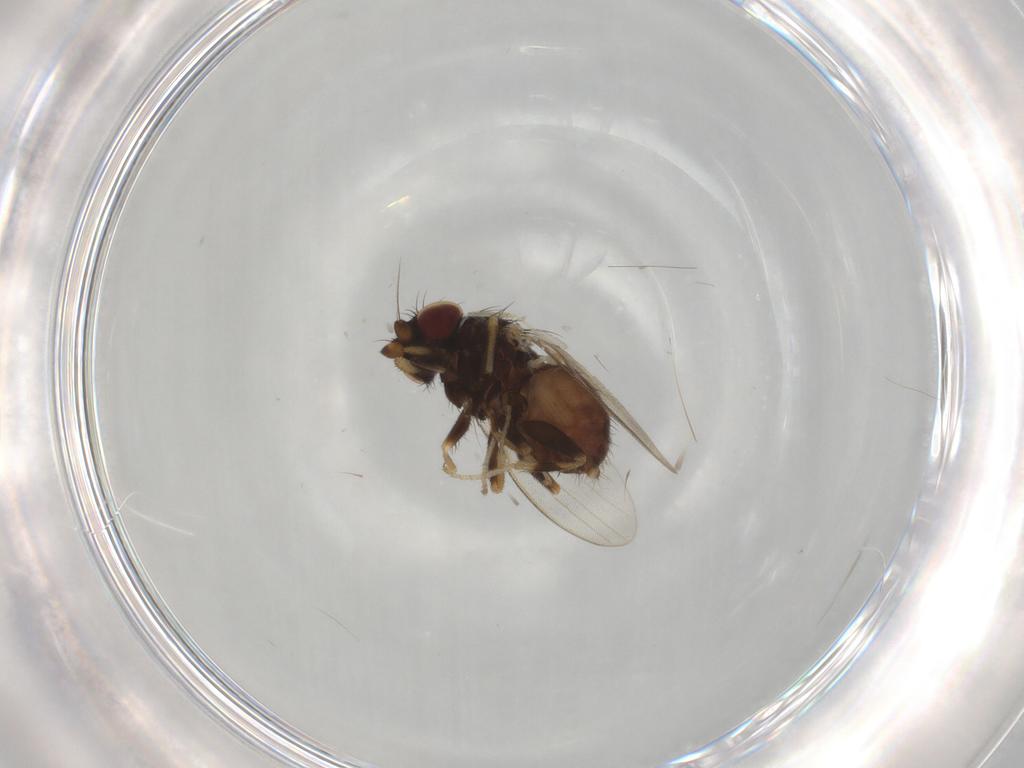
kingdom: Animalia
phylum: Arthropoda
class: Insecta
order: Diptera
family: Milichiidae
